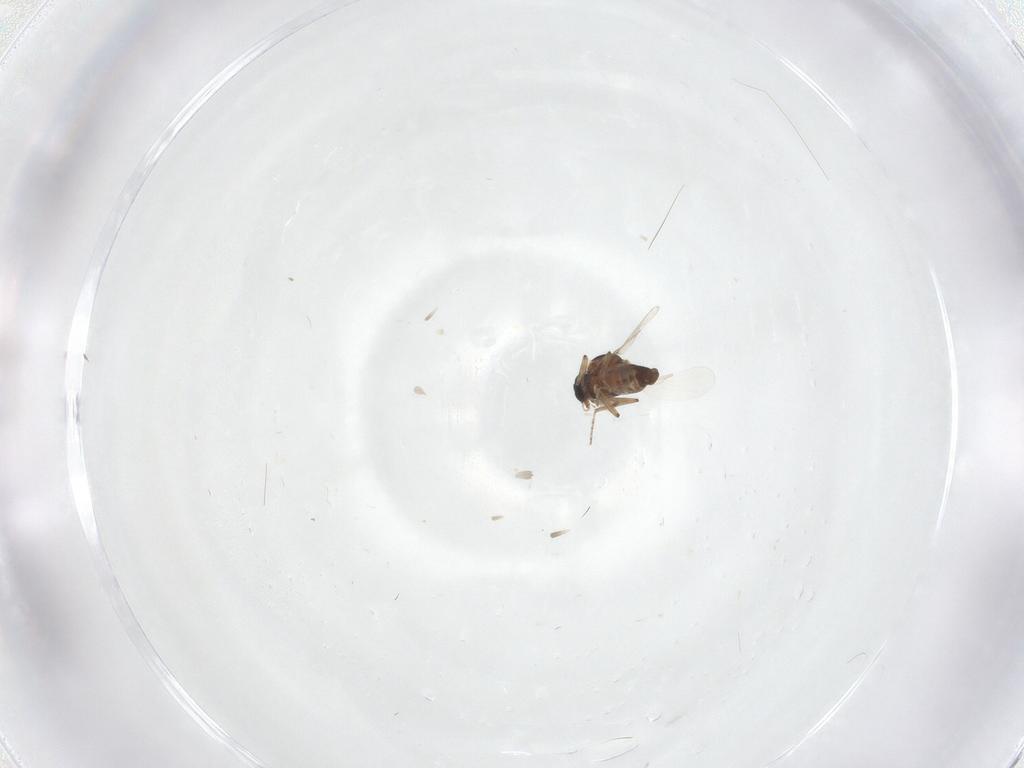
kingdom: Animalia
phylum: Arthropoda
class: Insecta
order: Diptera
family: Ceratopogonidae
